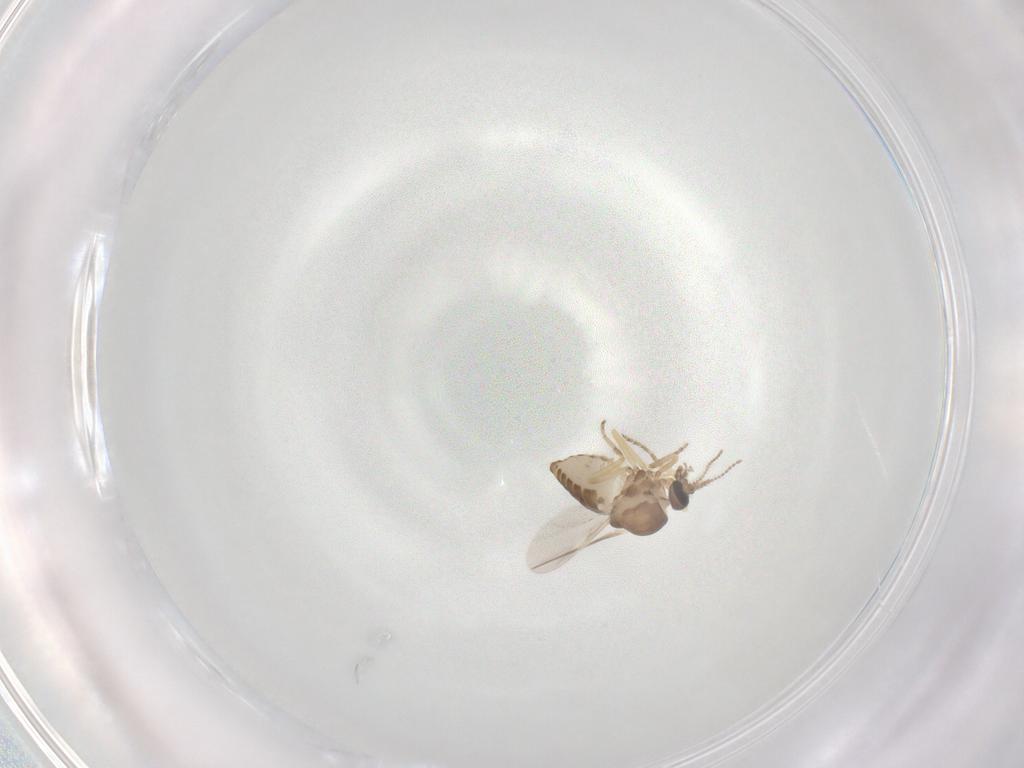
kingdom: Animalia
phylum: Arthropoda
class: Insecta
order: Diptera
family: Ceratopogonidae
